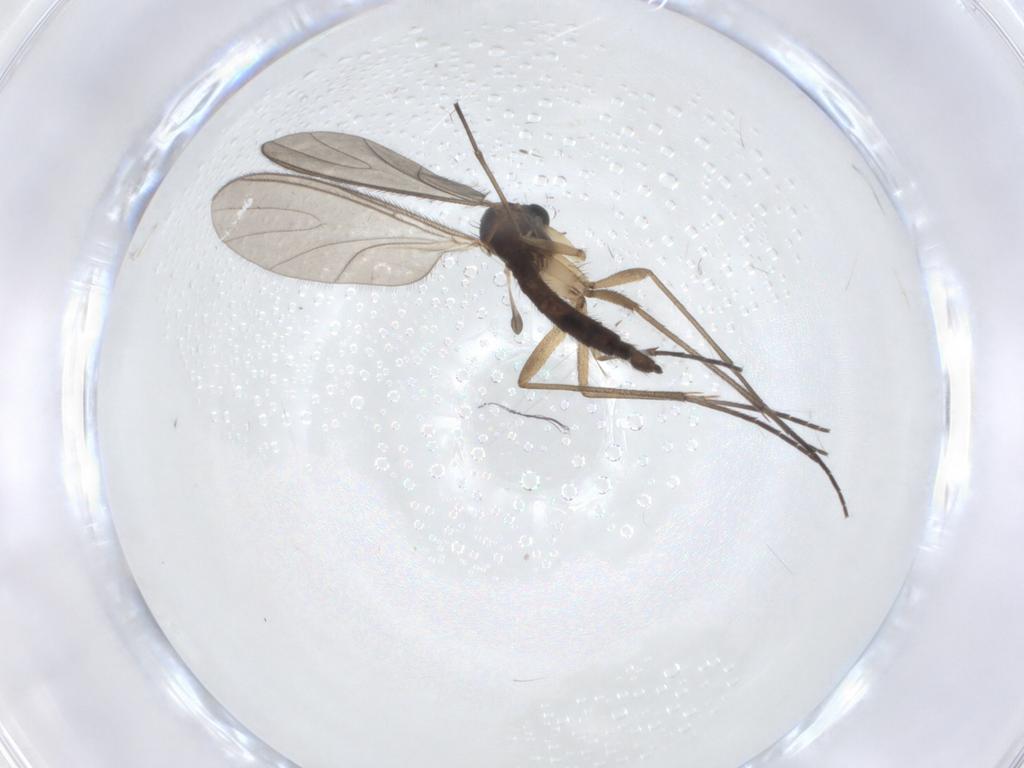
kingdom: Animalia
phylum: Arthropoda
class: Insecta
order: Diptera
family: Sciaridae
